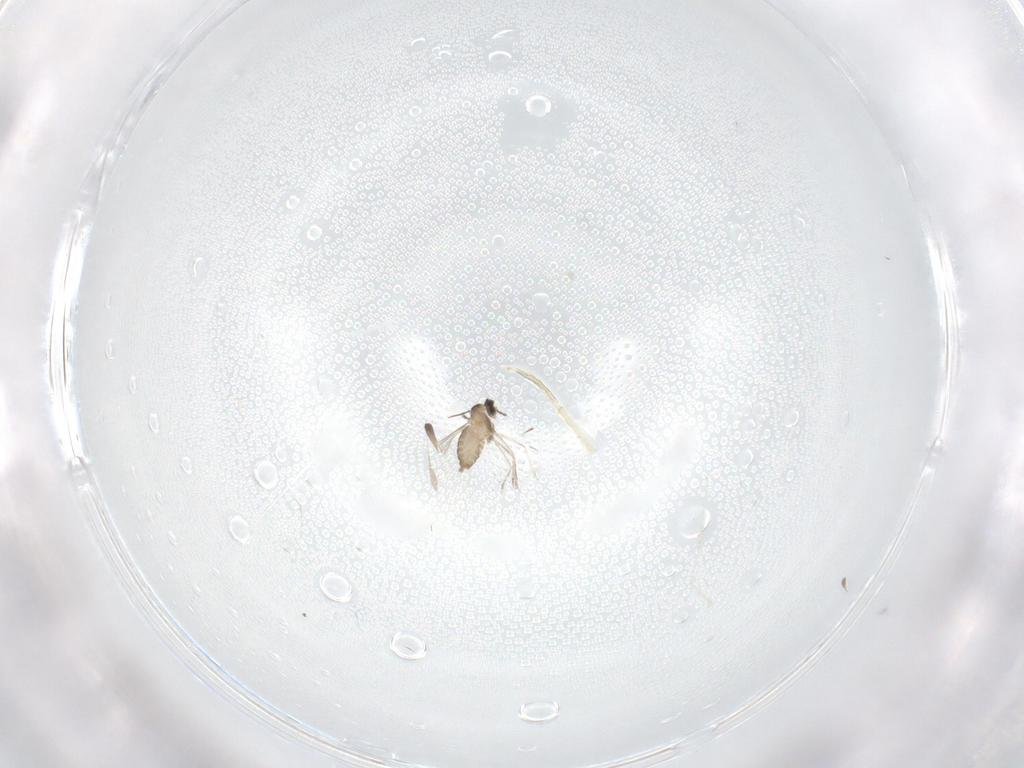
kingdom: Animalia
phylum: Arthropoda
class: Insecta
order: Diptera
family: Cecidomyiidae
